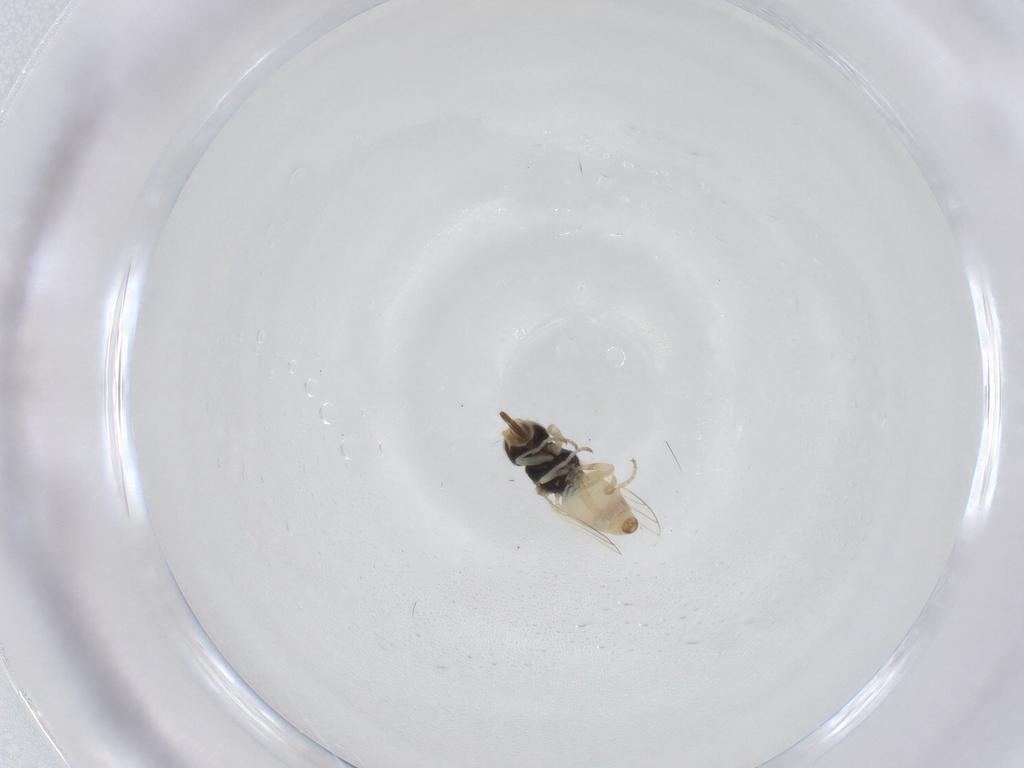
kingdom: Animalia
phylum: Arthropoda
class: Insecta
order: Diptera
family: Chloropidae
